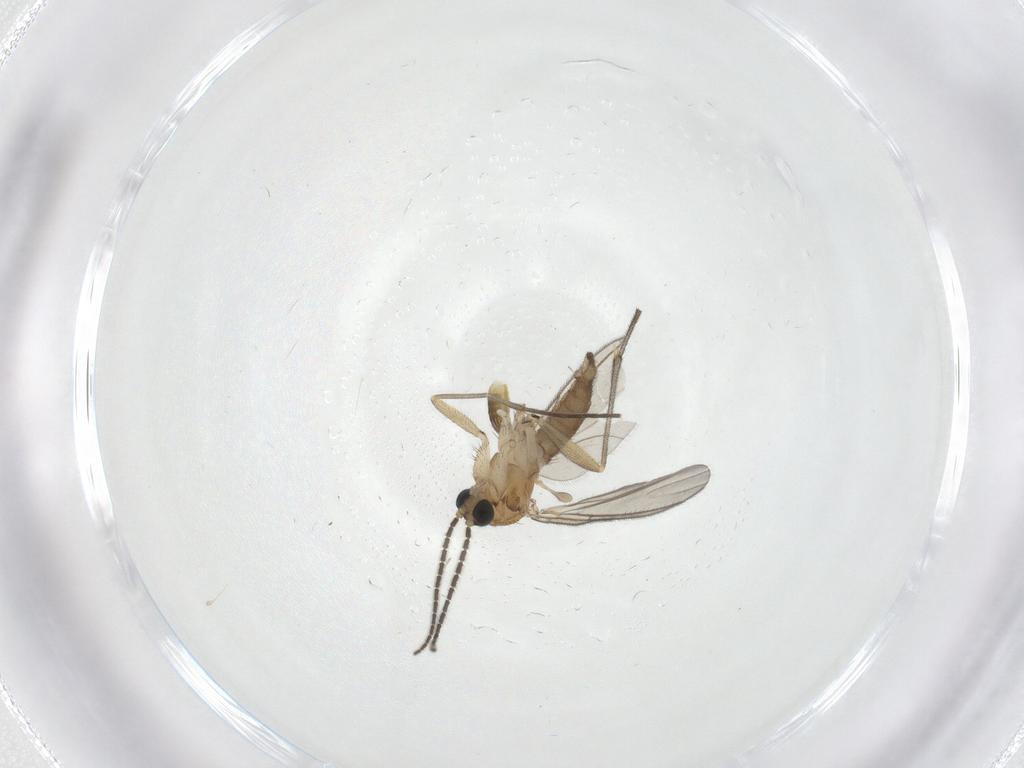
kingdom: Animalia
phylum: Arthropoda
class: Insecta
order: Diptera
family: Chironomidae
